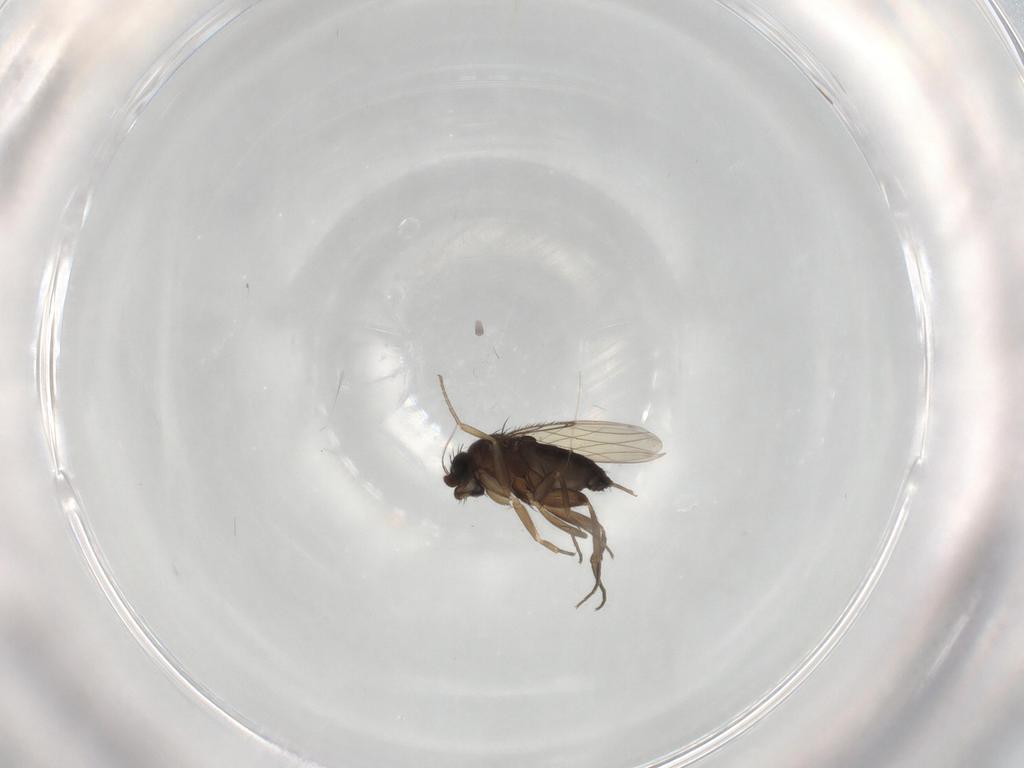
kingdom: Animalia
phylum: Arthropoda
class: Insecta
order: Diptera
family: Phoridae
